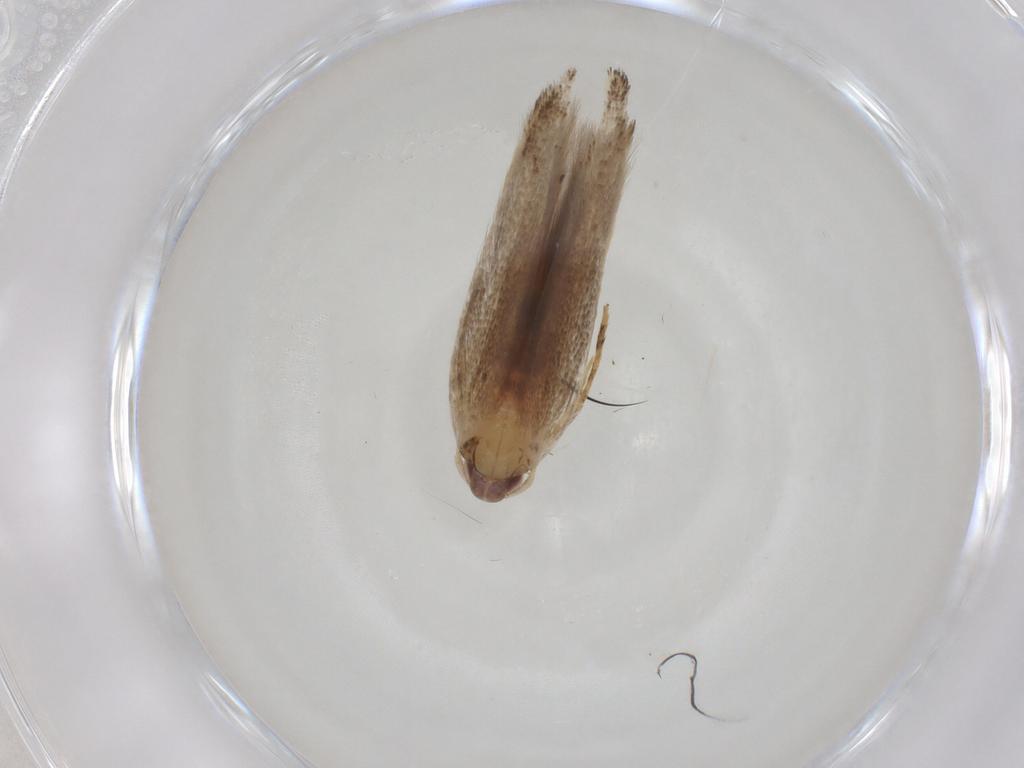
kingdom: Animalia
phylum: Arthropoda
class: Insecta
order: Lepidoptera
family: Cosmopterigidae
